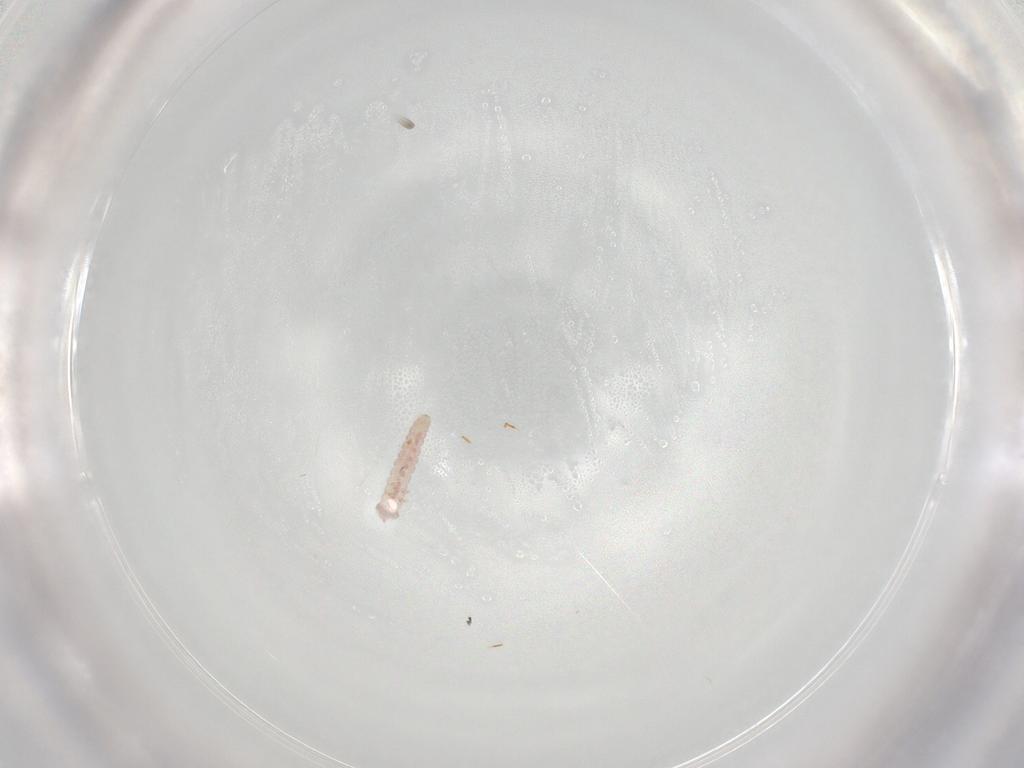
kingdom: Animalia
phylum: Arthropoda
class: Insecta
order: Lepidoptera
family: Blastobasidae
